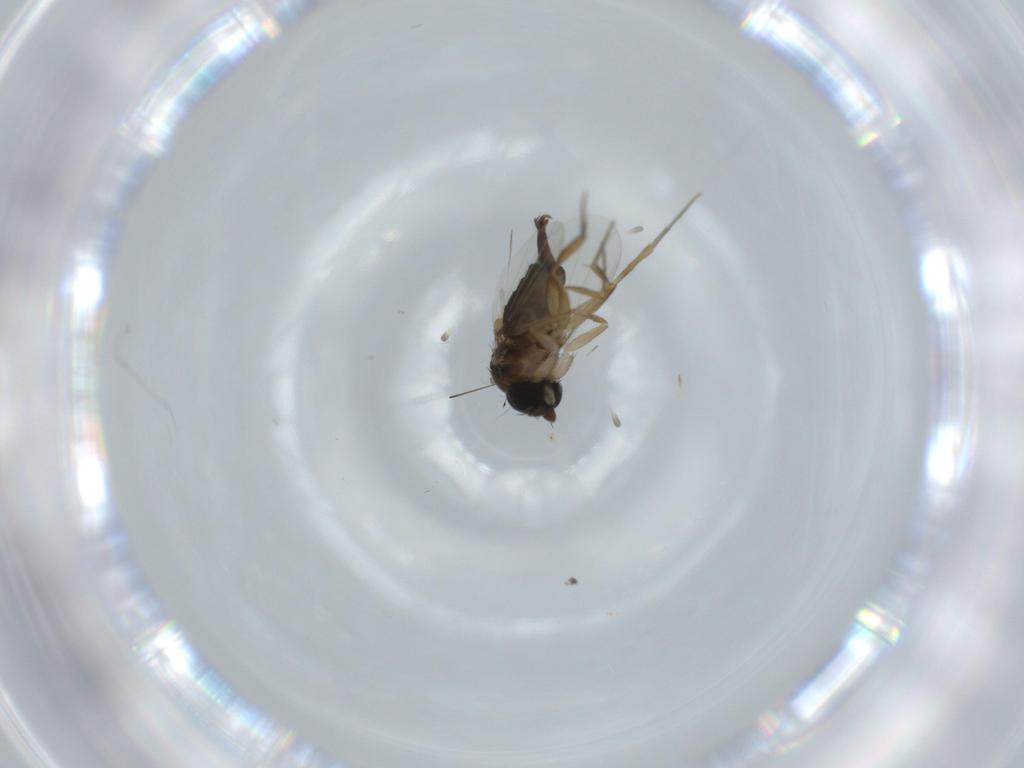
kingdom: Animalia
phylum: Arthropoda
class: Insecta
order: Diptera
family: Phoridae
